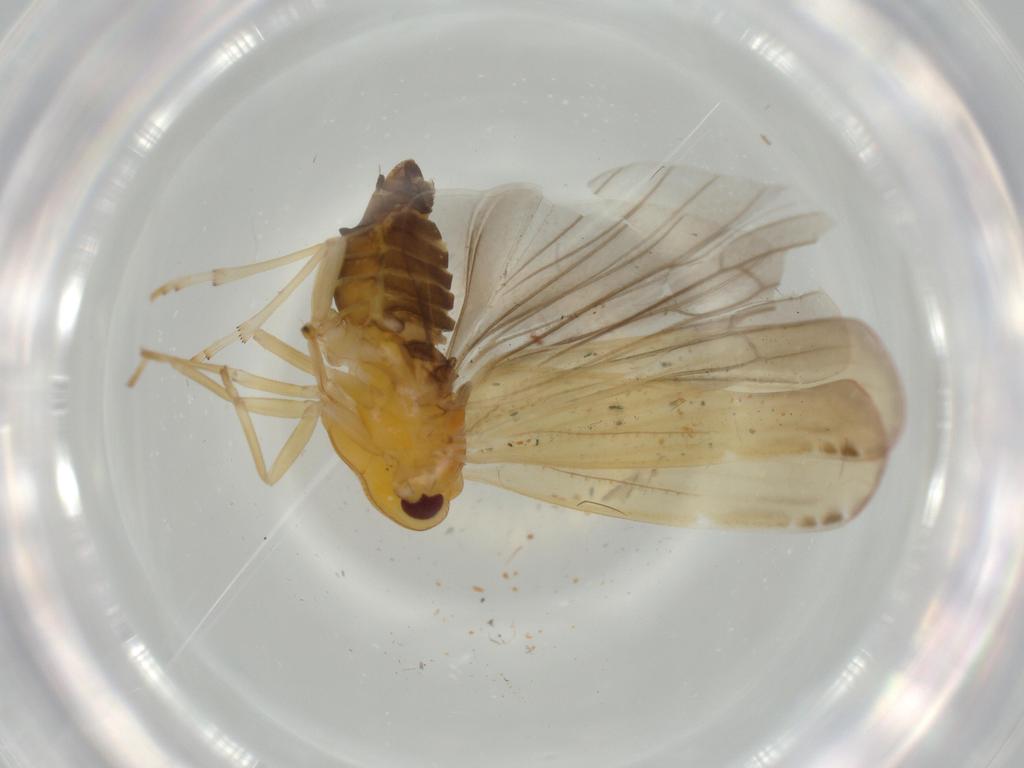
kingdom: Animalia
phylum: Arthropoda
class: Insecta
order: Hemiptera
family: Derbidae
